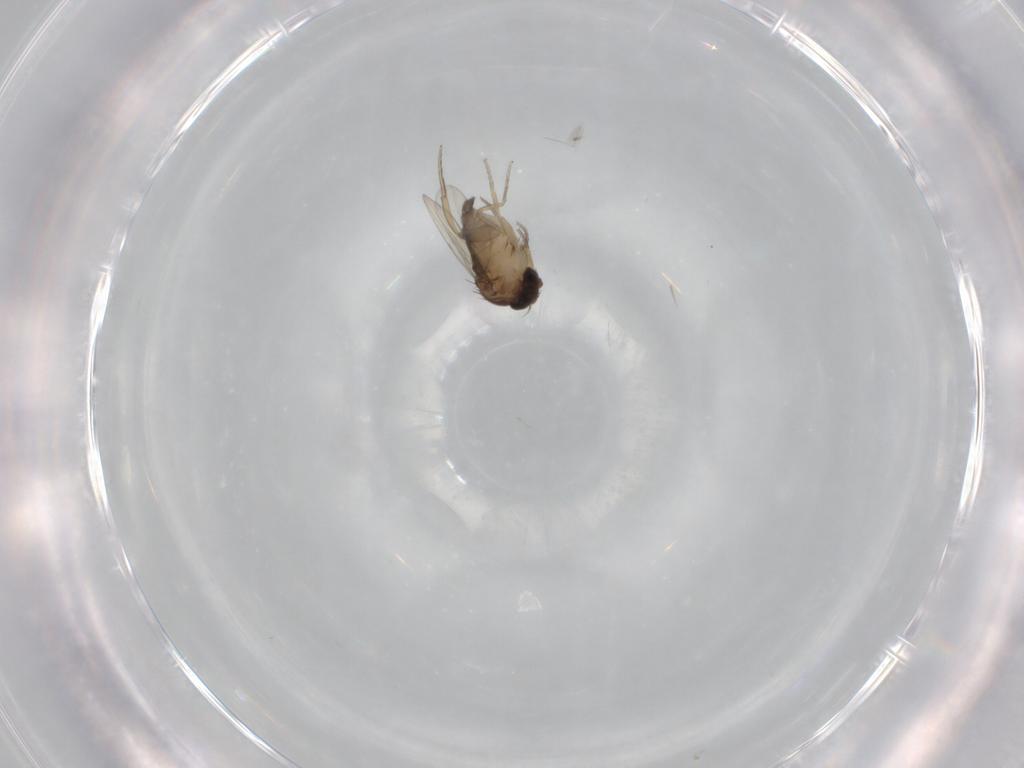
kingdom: Animalia
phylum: Arthropoda
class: Insecta
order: Diptera
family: Phoridae
